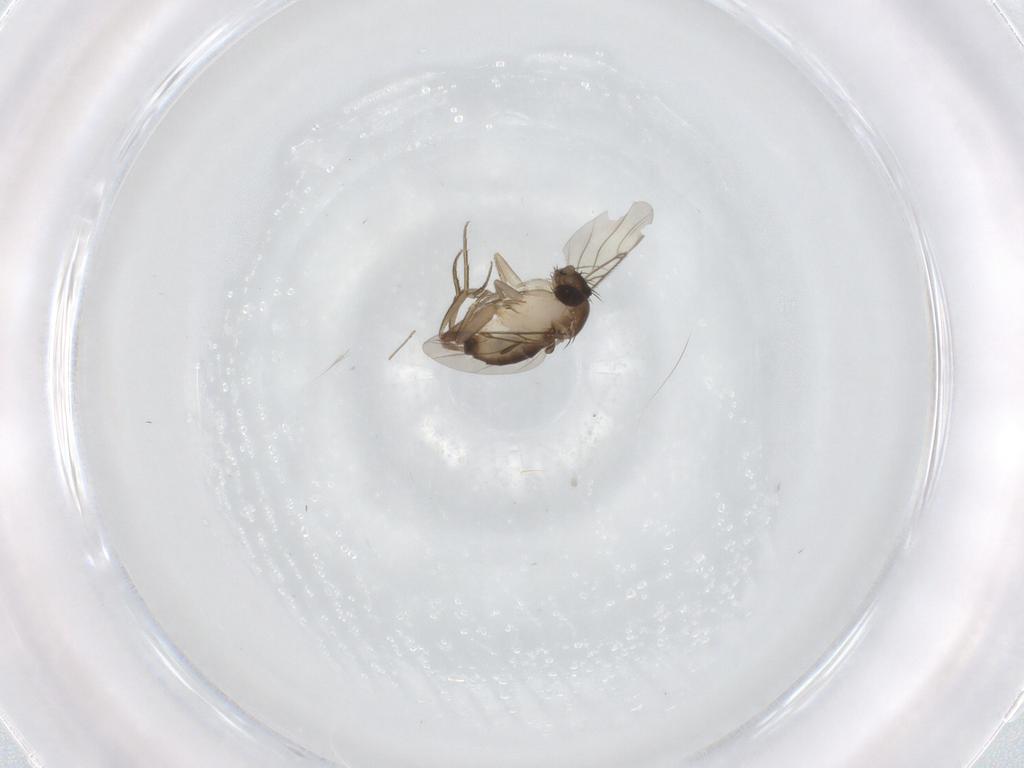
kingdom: Animalia
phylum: Arthropoda
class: Insecta
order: Diptera
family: Phoridae
